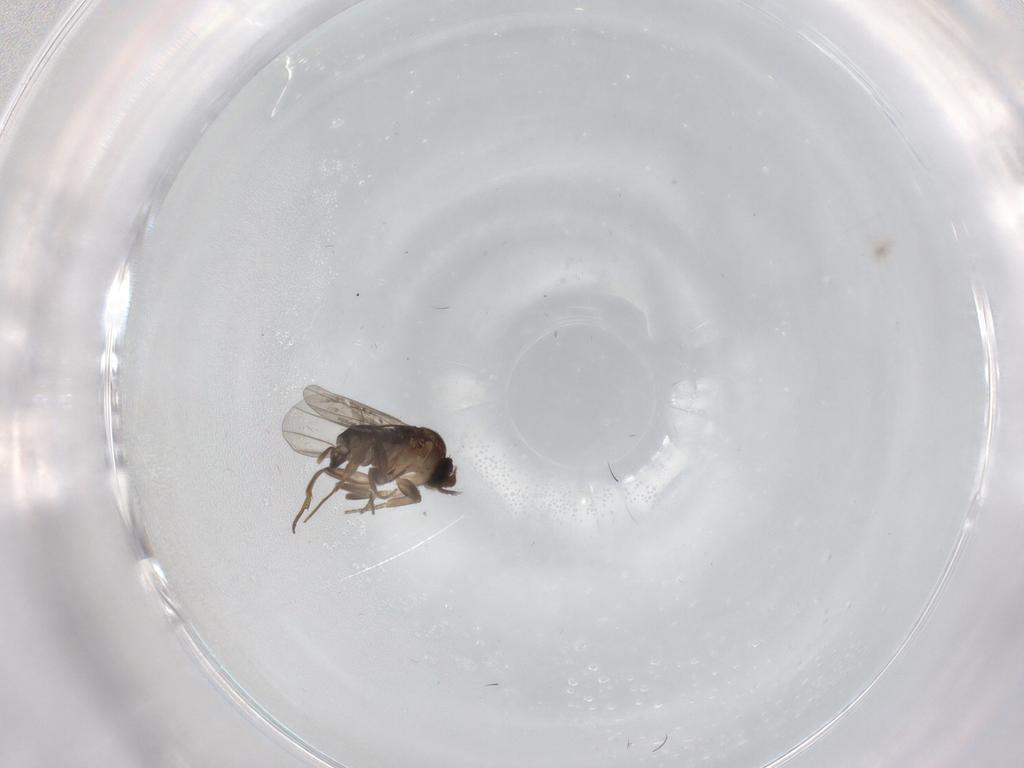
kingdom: Animalia
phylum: Arthropoda
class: Insecta
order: Diptera
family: Phoridae
